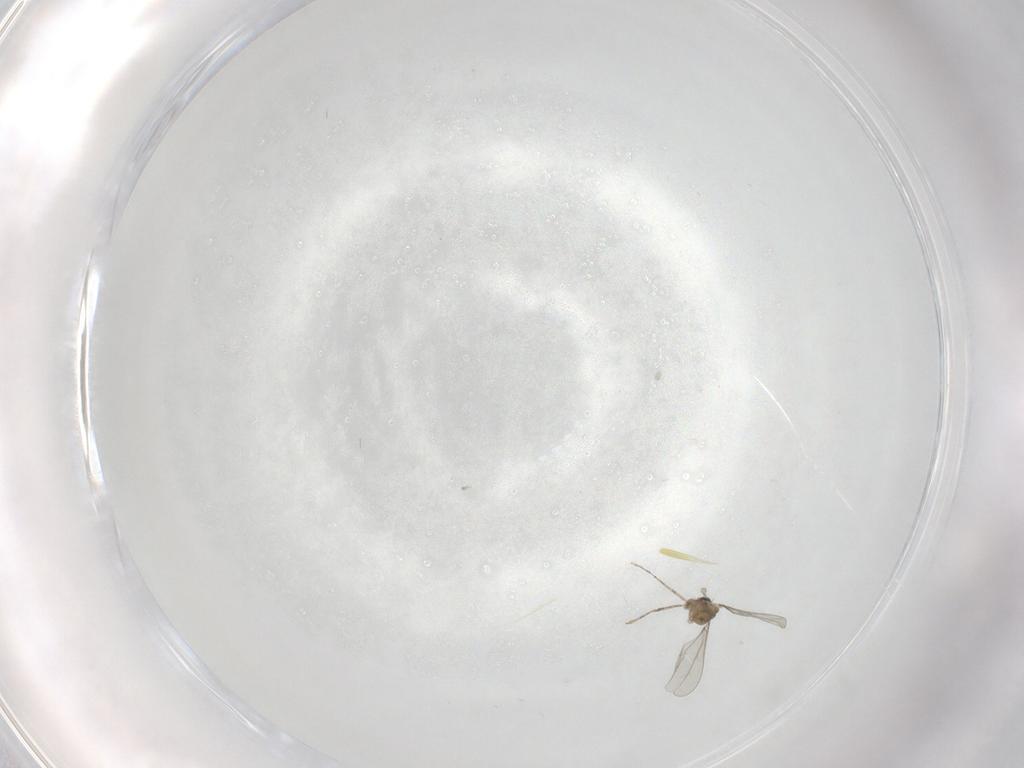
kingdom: Animalia
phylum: Arthropoda
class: Insecta
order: Diptera
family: Cecidomyiidae
